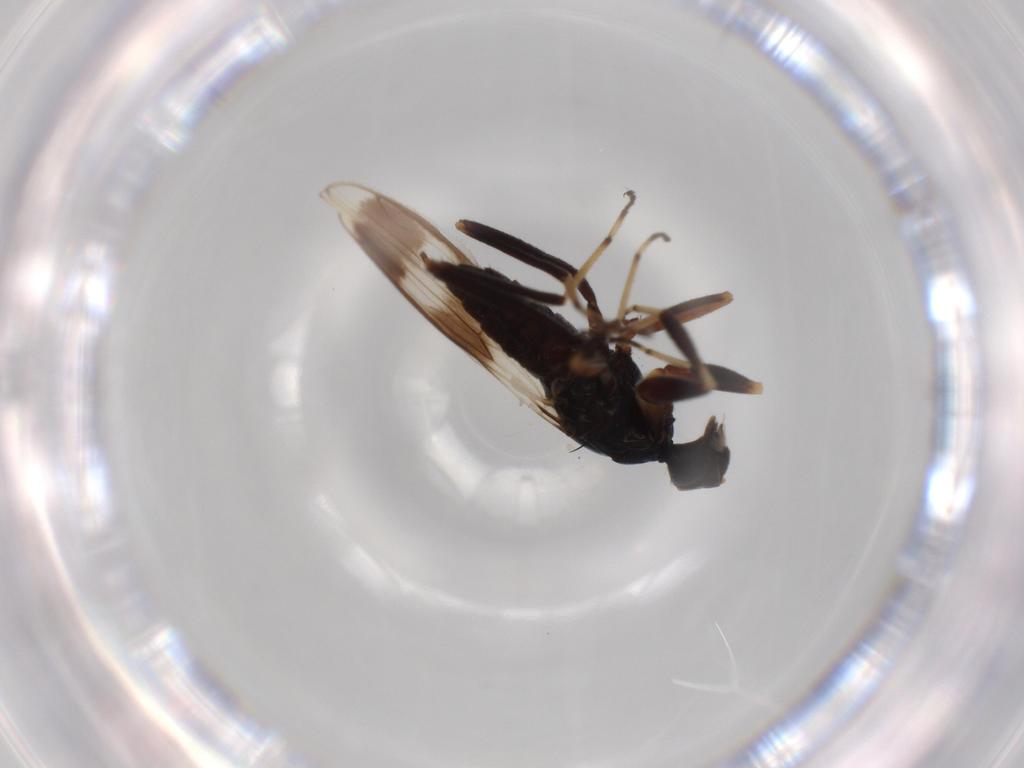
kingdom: Animalia
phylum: Arthropoda
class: Insecta
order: Diptera
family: Hybotidae
